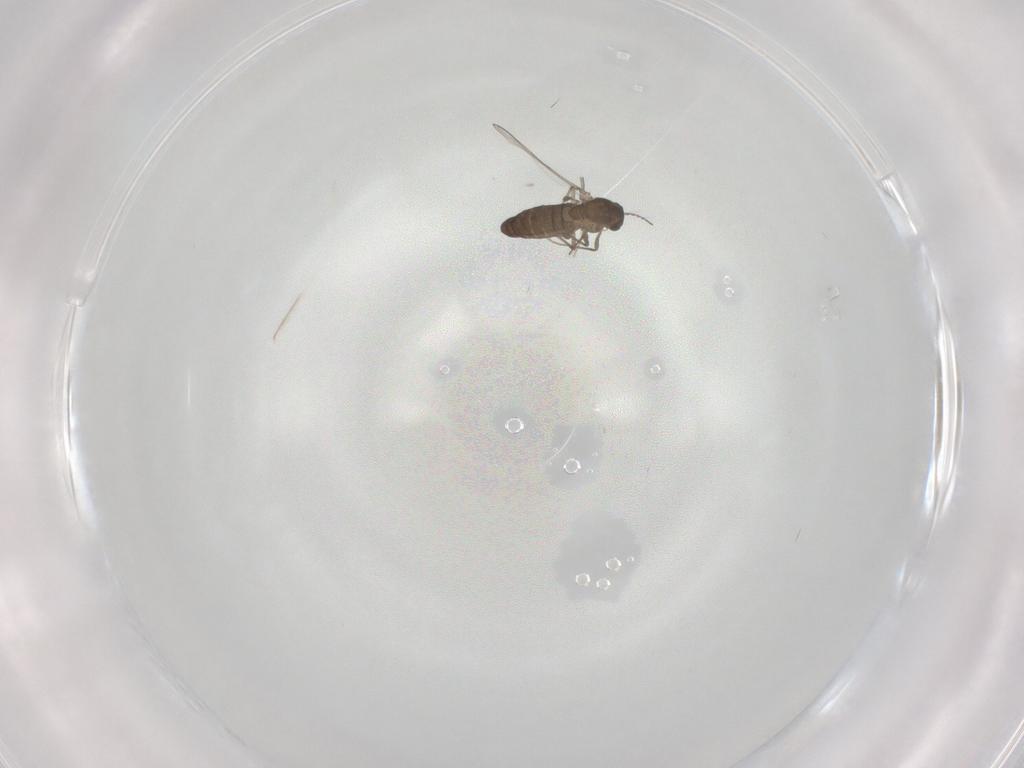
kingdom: Animalia
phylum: Arthropoda
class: Insecta
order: Diptera
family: Chironomidae
